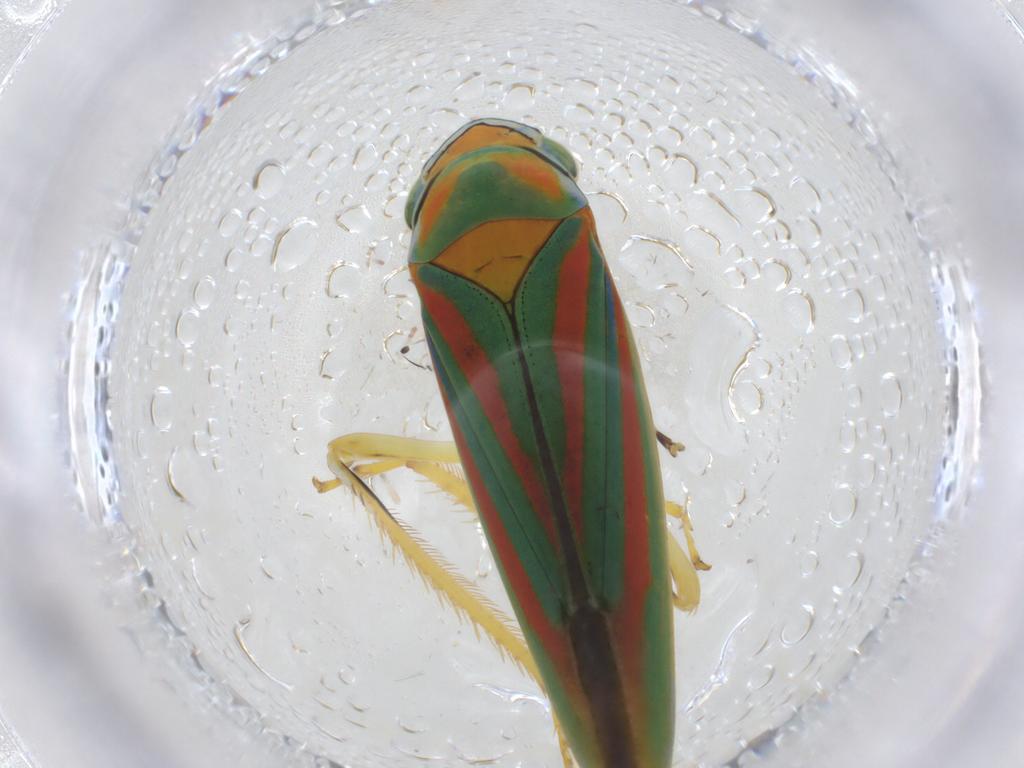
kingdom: Animalia
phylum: Arthropoda
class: Insecta
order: Hemiptera
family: Cicadellidae
